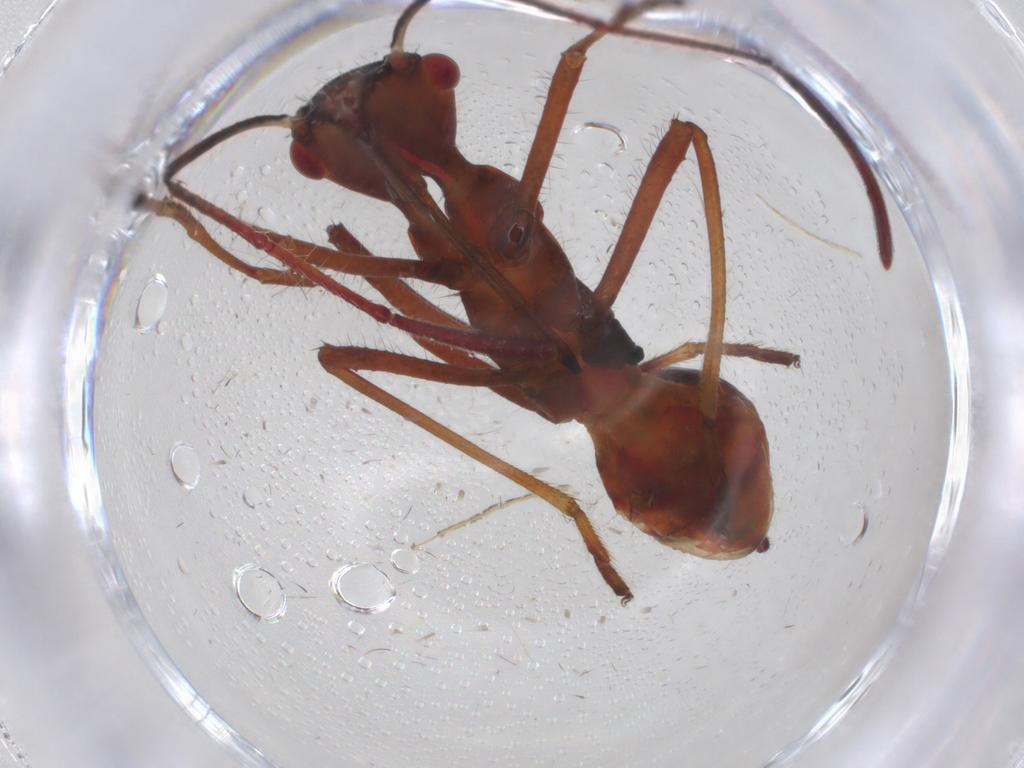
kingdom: Animalia
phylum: Arthropoda
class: Insecta
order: Hemiptera
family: Alydidae
